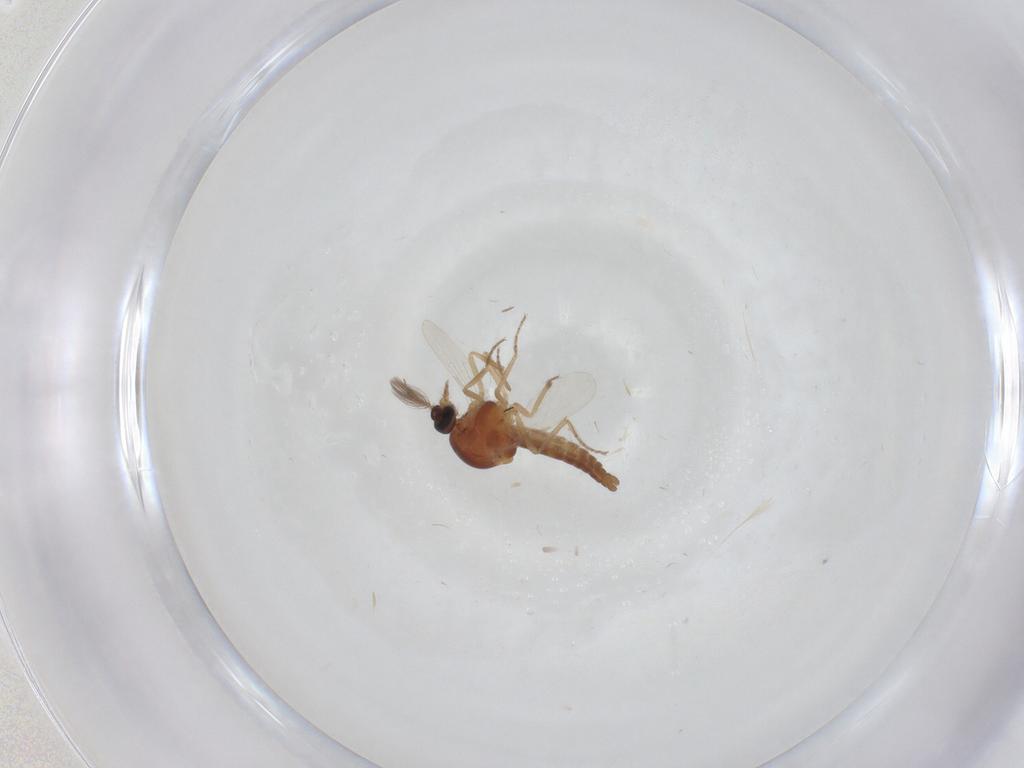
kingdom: Animalia
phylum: Arthropoda
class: Insecta
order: Diptera
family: Ceratopogonidae
